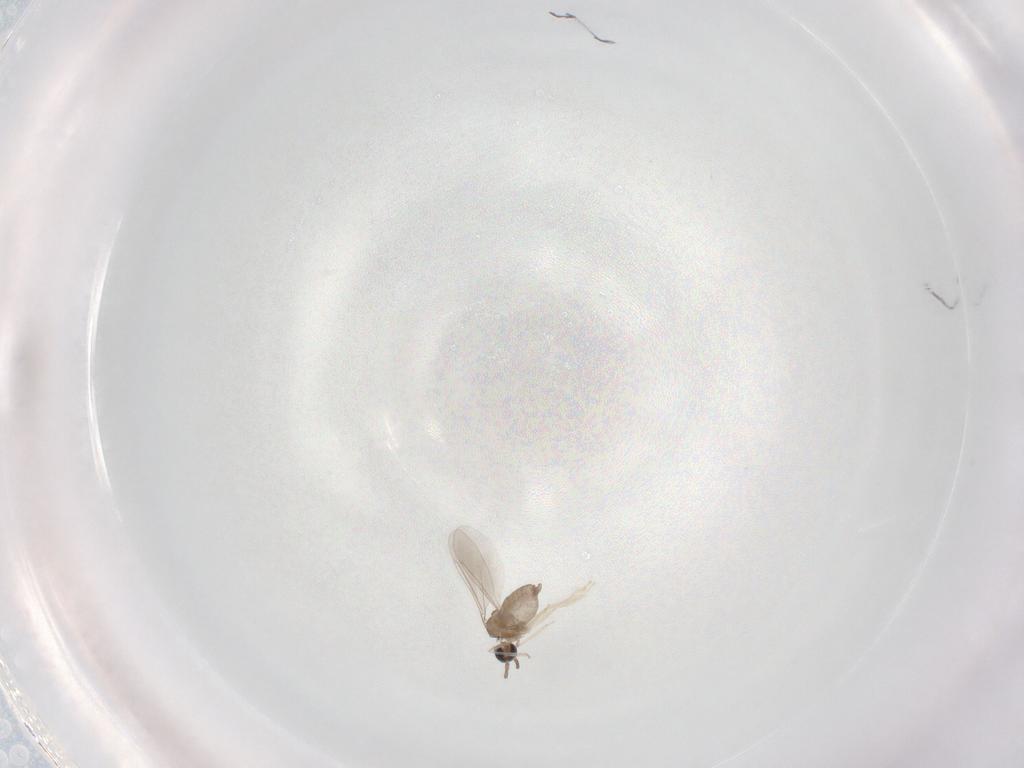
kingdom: Animalia
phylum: Arthropoda
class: Insecta
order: Diptera
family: Cecidomyiidae
